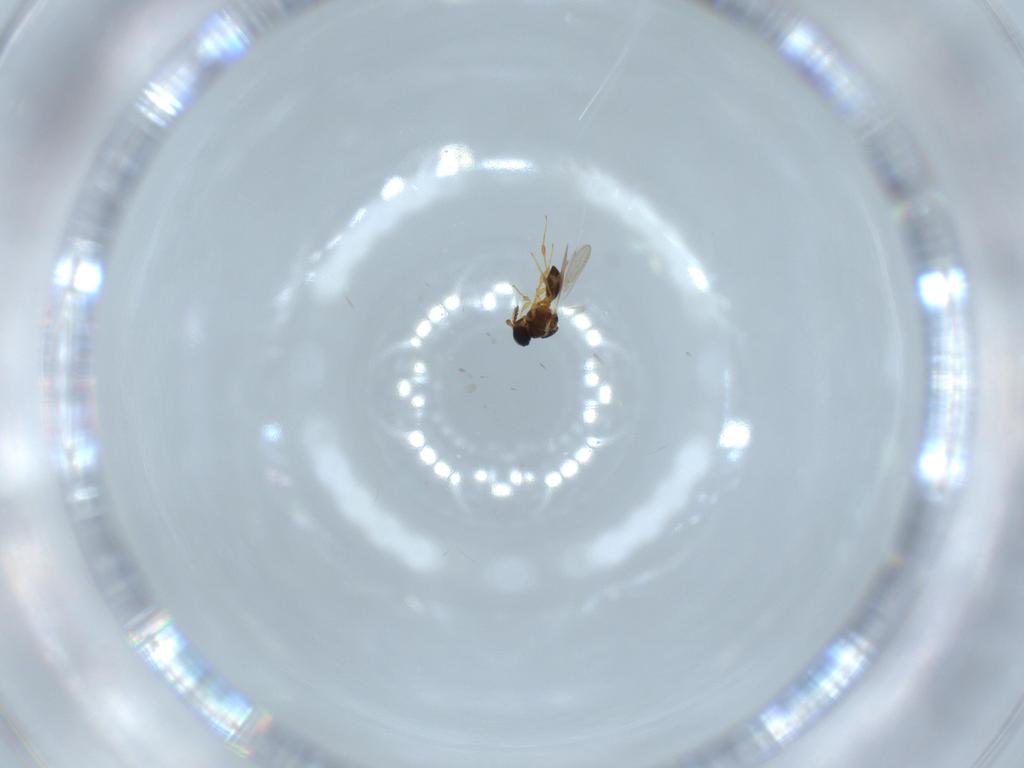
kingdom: Animalia
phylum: Arthropoda
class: Insecta
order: Hymenoptera
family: Platygastridae
